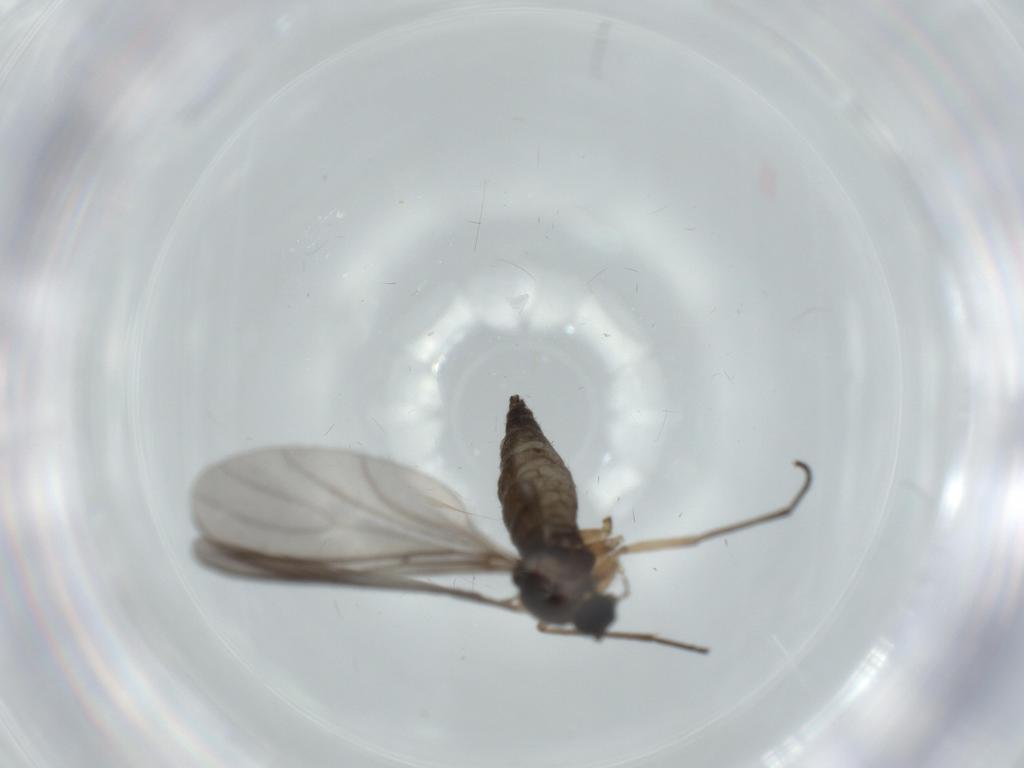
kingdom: Animalia
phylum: Arthropoda
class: Insecta
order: Diptera
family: Sciaridae
